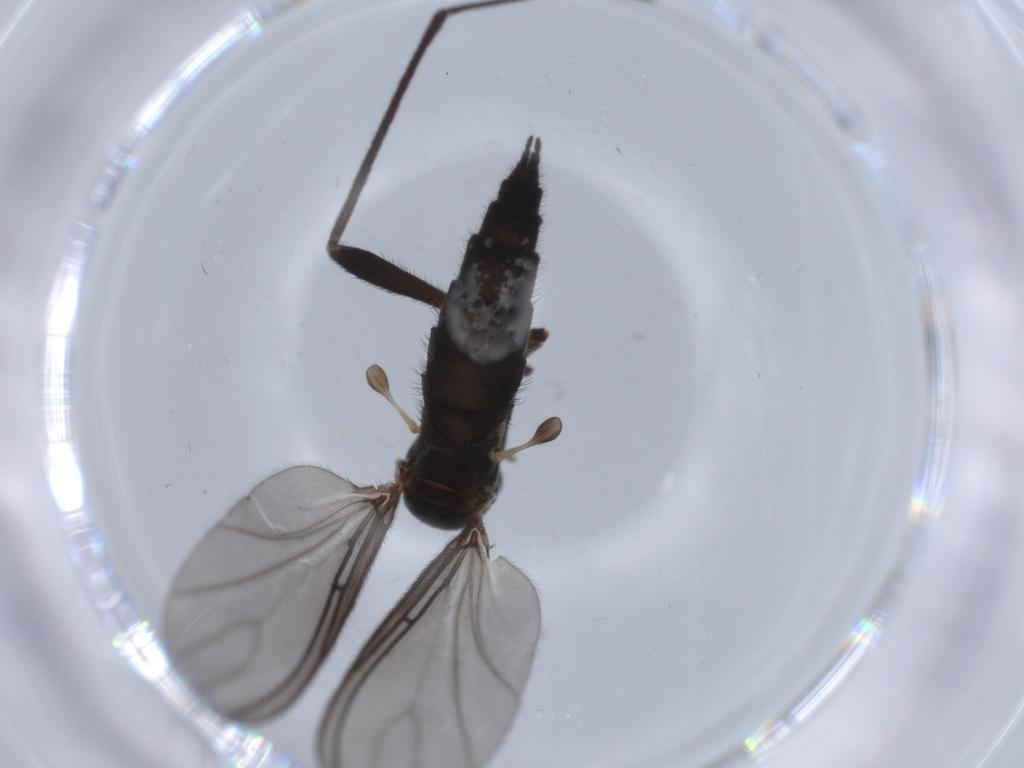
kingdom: Animalia
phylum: Arthropoda
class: Insecta
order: Diptera
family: Sciaridae
